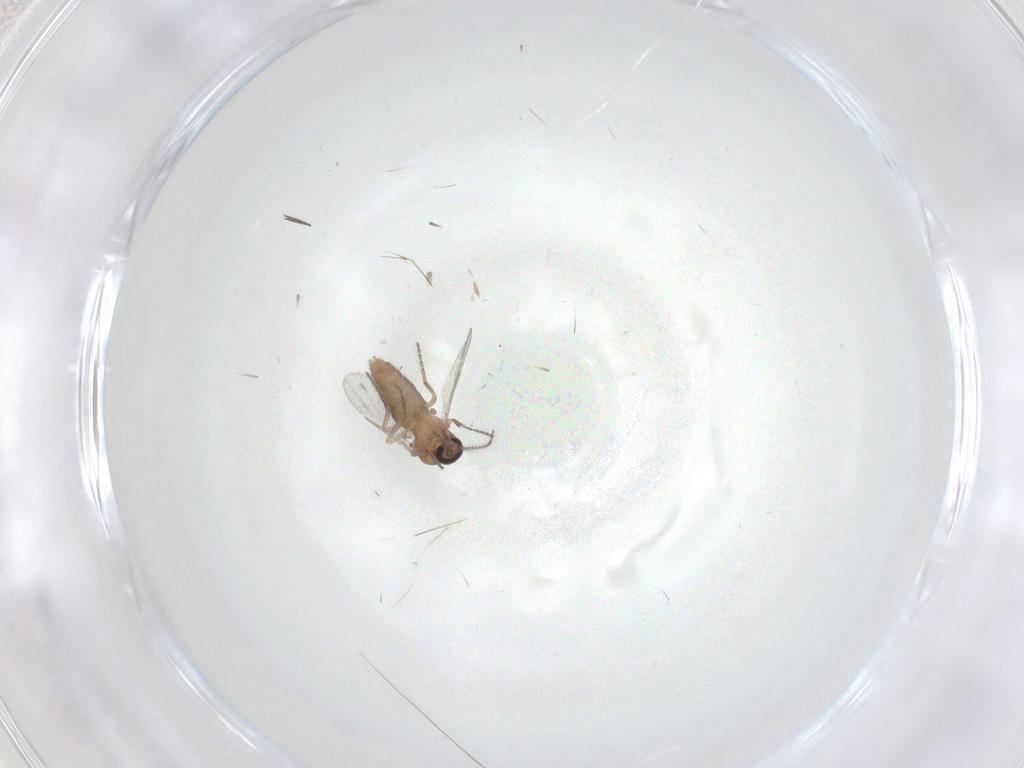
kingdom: Animalia
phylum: Arthropoda
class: Insecta
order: Diptera
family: Ceratopogonidae
